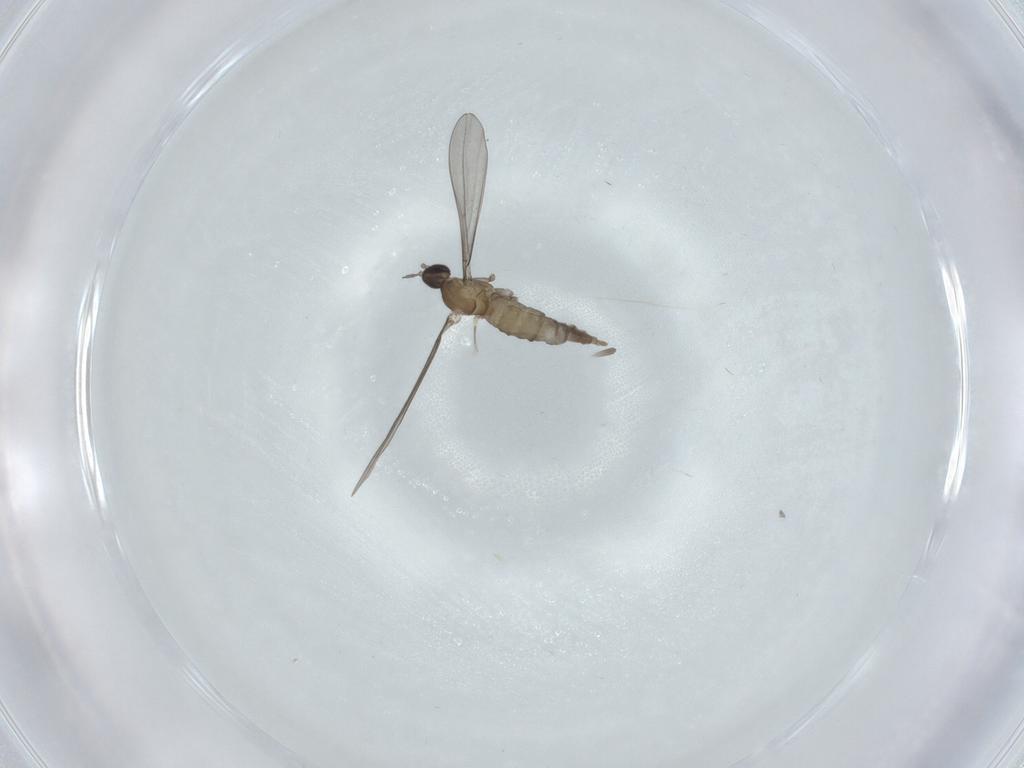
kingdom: Animalia
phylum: Arthropoda
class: Insecta
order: Diptera
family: Cecidomyiidae
